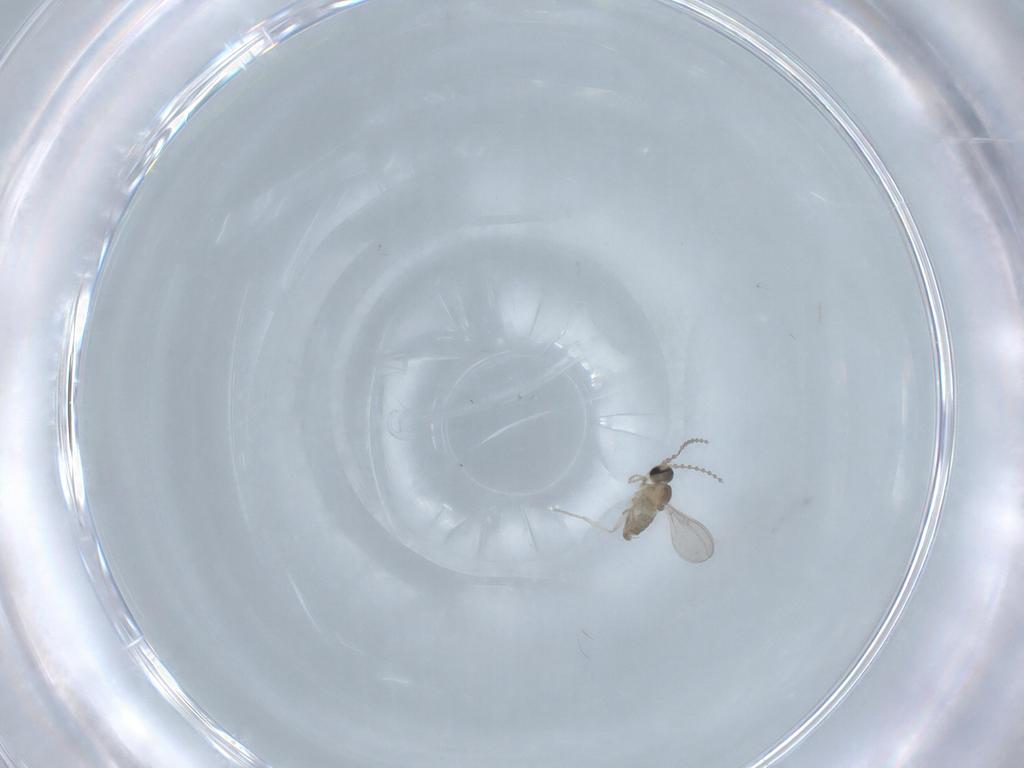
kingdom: Animalia
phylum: Arthropoda
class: Insecta
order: Diptera
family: Cecidomyiidae
